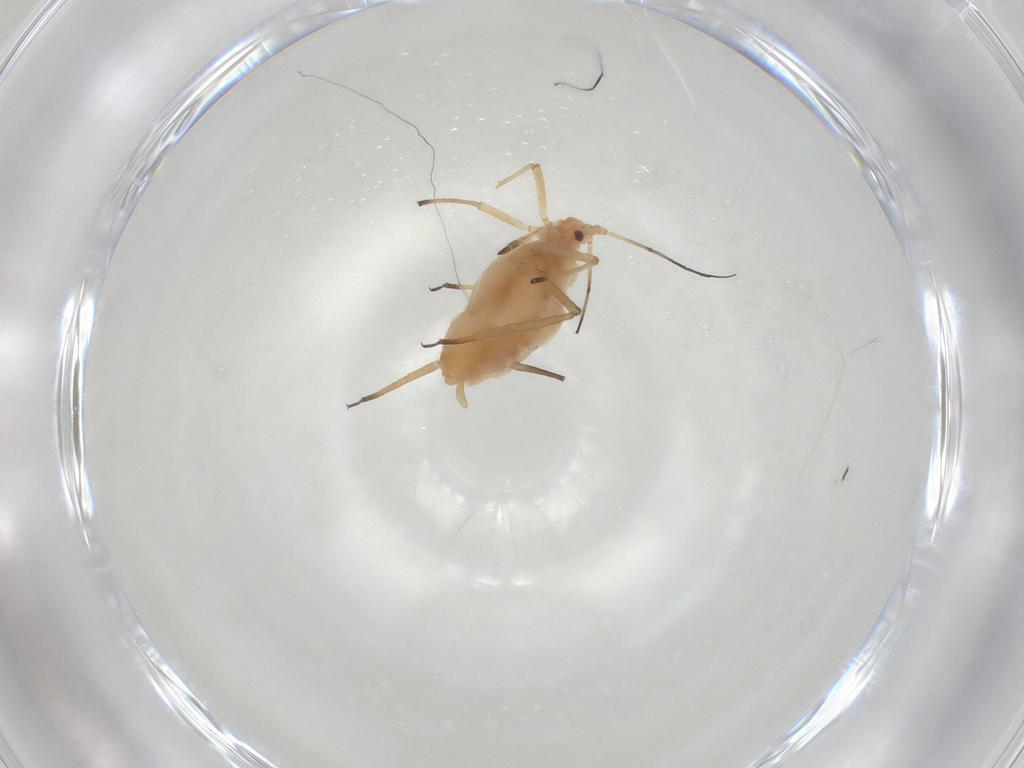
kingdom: Animalia
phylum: Arthropoda
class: Insecta
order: Hemiptera
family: Aphididae
